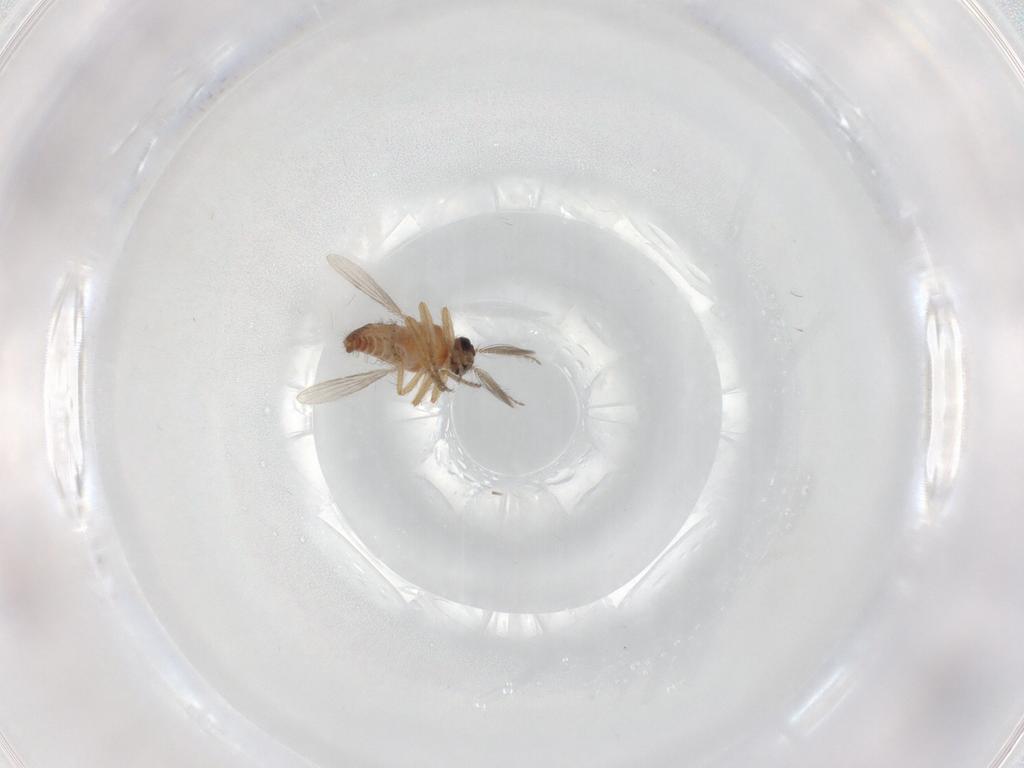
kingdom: Animalia
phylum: Arthropoda
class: Insecta
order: Diptera
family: Ceratopogonidae
